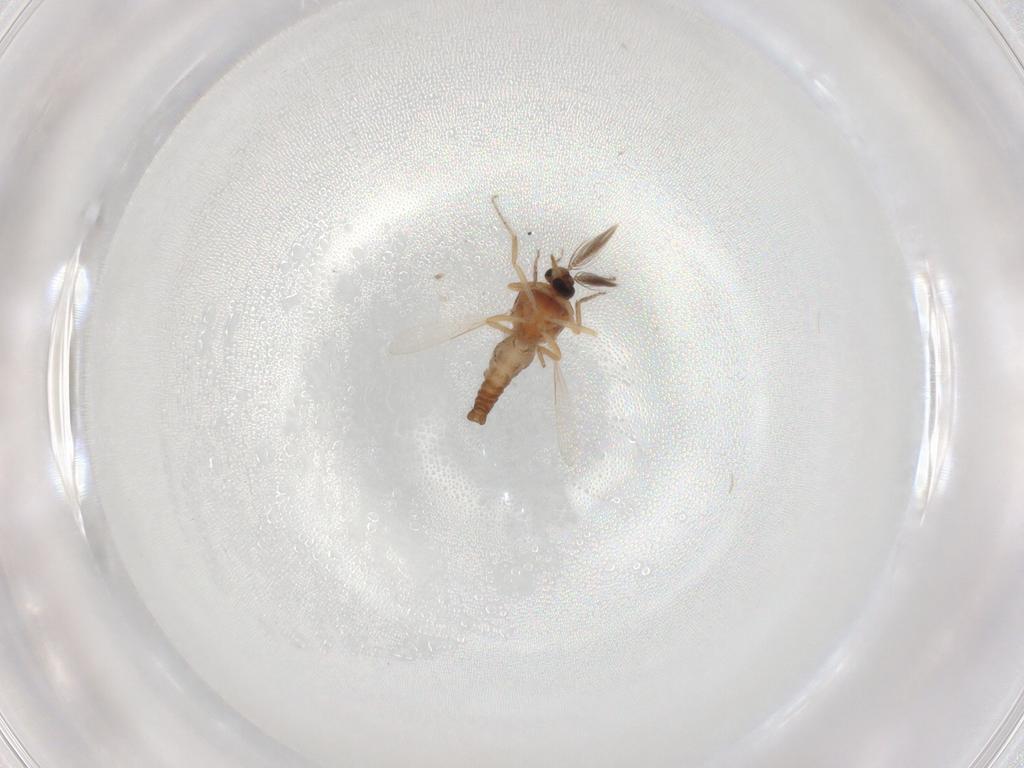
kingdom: Animalia
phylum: Arthropoda
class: Insecta
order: Diptera
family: Ceratopogonidae
